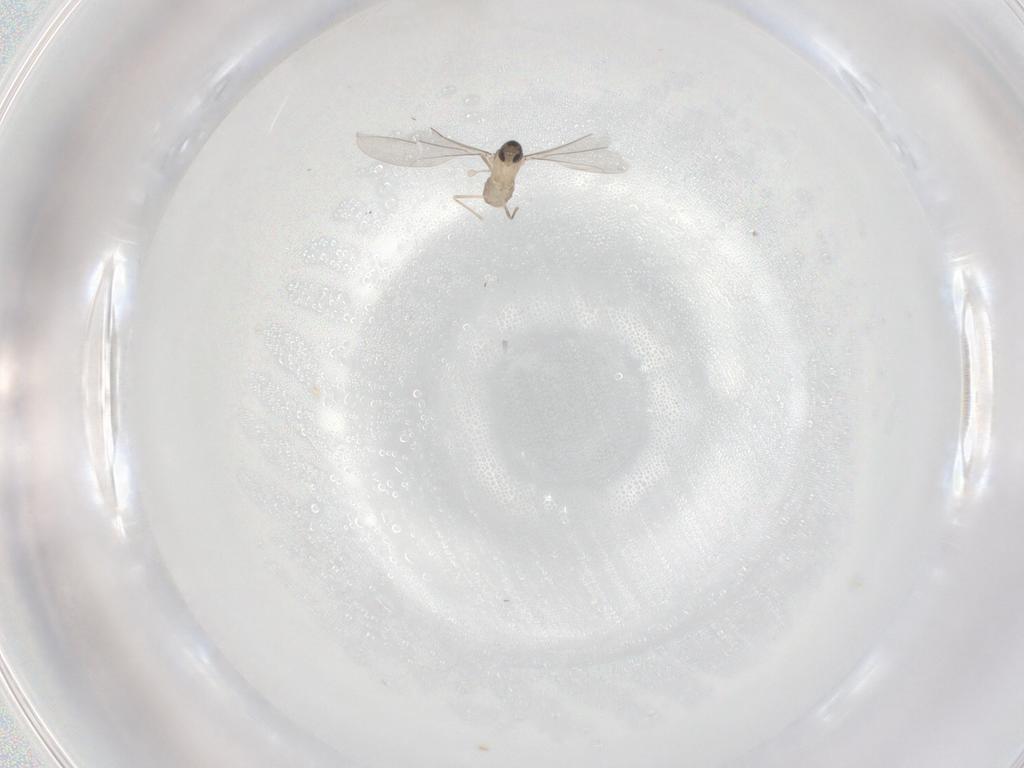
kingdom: Animalia
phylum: Arthropoda
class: Insecta
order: Diptera
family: Cecidomyiidae
